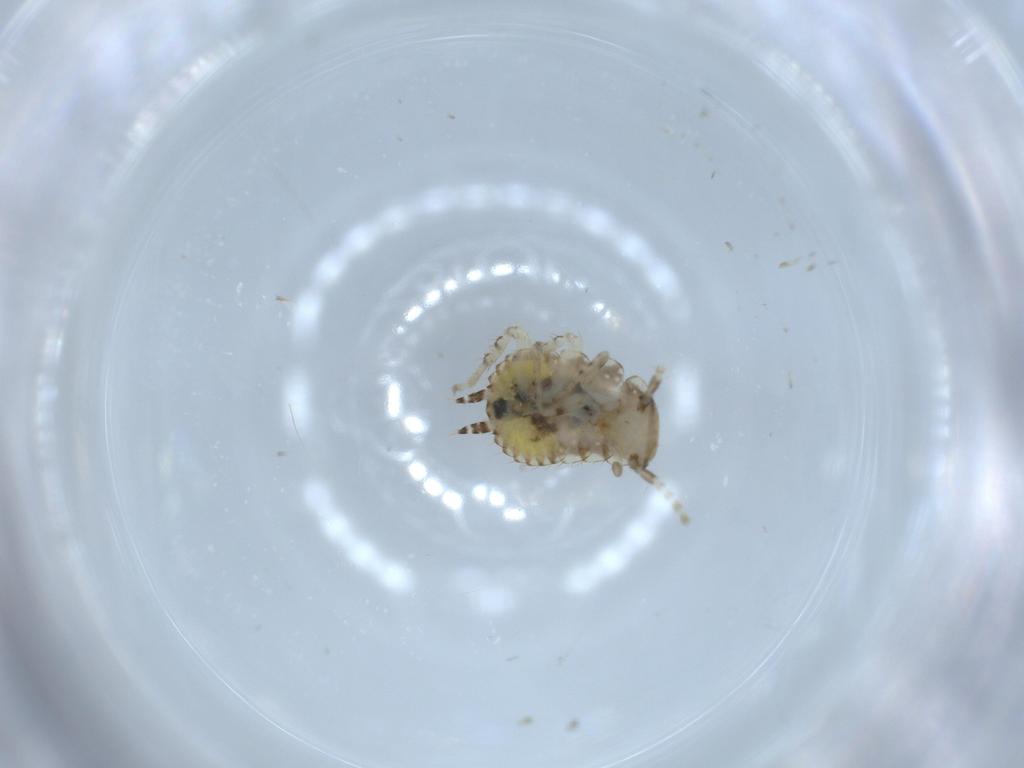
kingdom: Animalia
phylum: Arthropoda
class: Insecta
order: Blattodea
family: Ectobiidae
